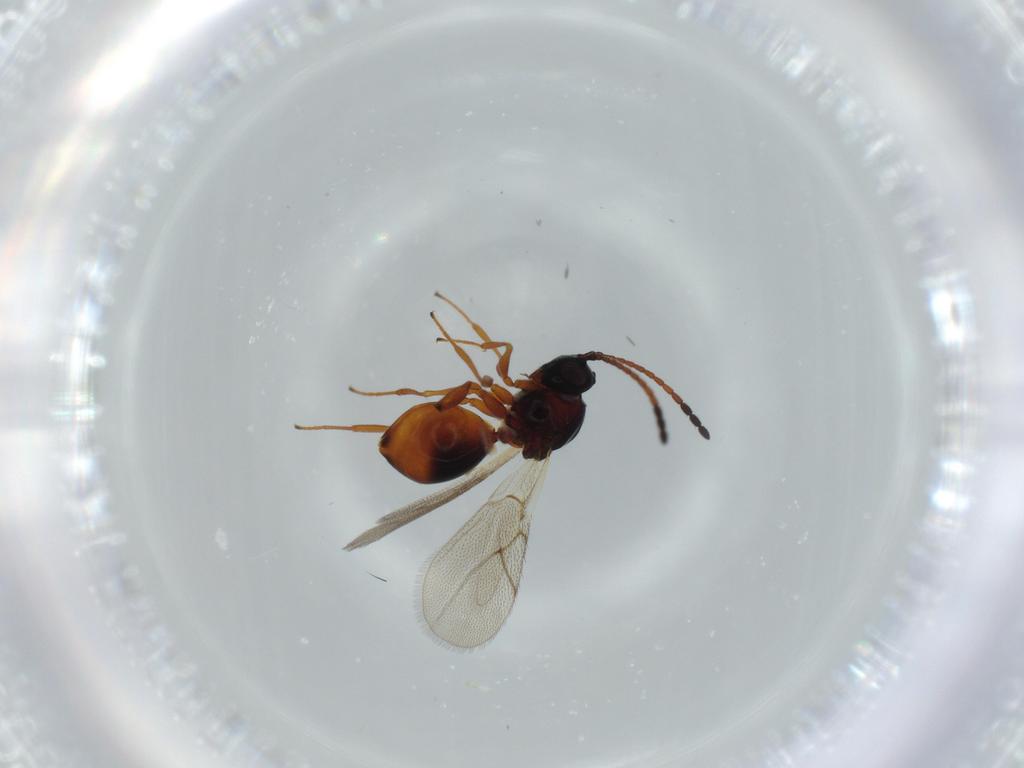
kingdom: Animalia
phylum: Arthropoda
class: Insecta
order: Hymenoptera
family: Figitidae
